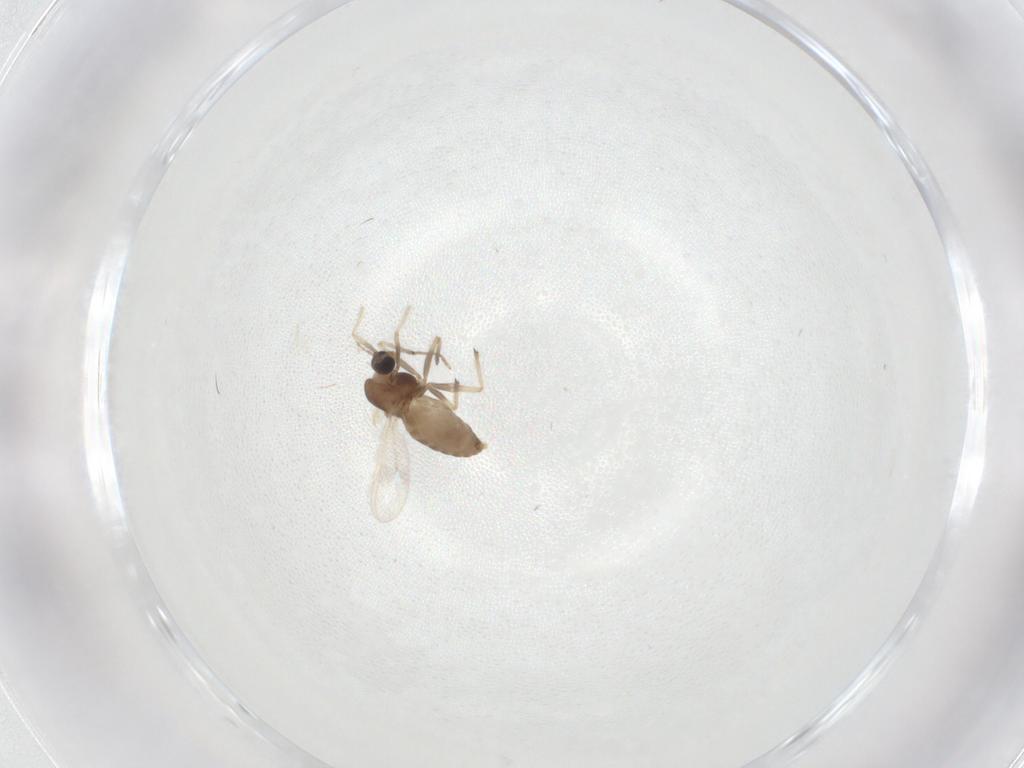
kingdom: Animalia
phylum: Arthropoda
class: Insecta
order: Diptera
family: Chironomidae
